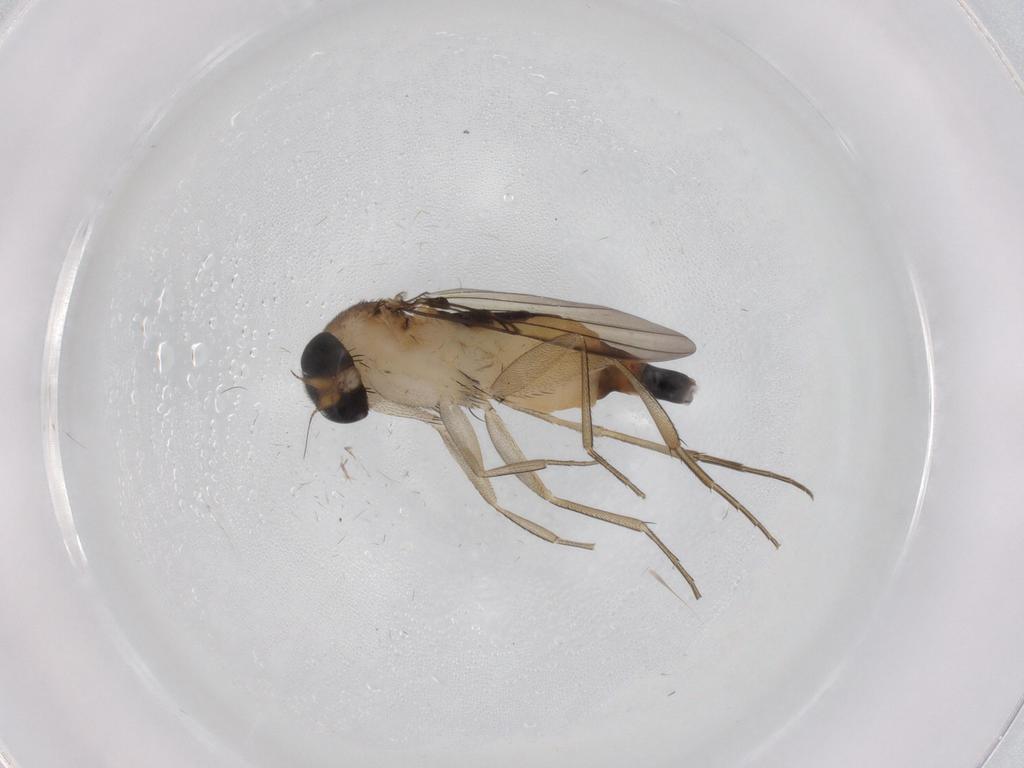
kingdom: Animalia
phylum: Arthropoda
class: Insecta
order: Diptera
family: Phoridae
